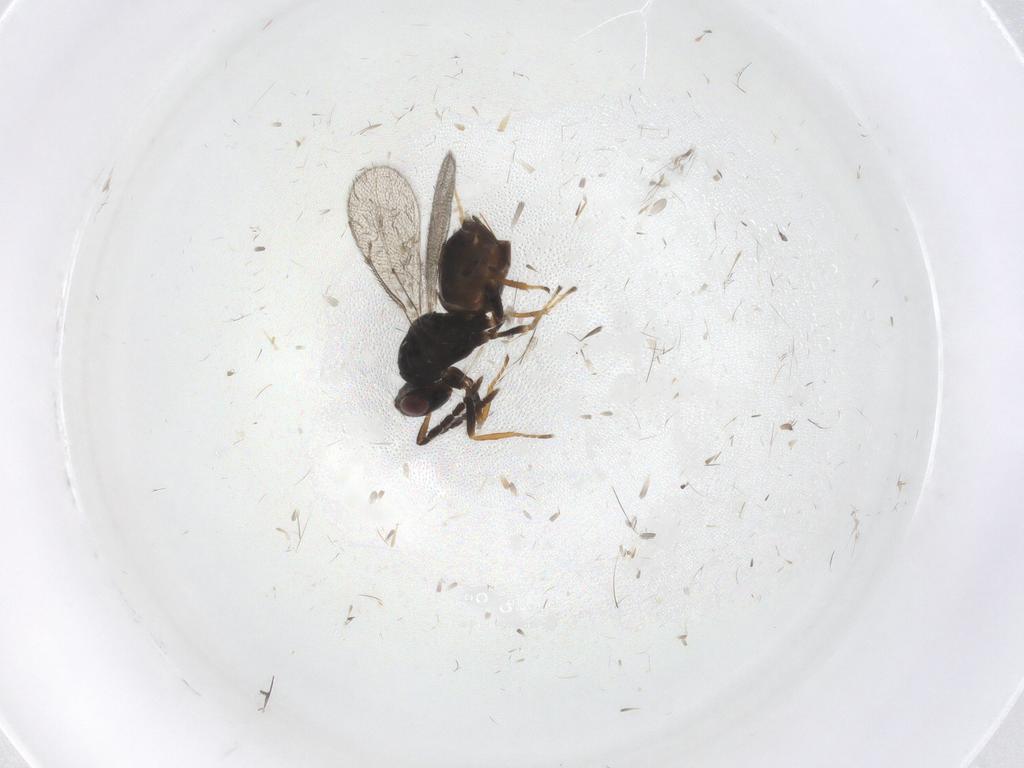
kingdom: Animalia
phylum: Arthropoda
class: Insecta
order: Hymenoptera
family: Eulophidae
